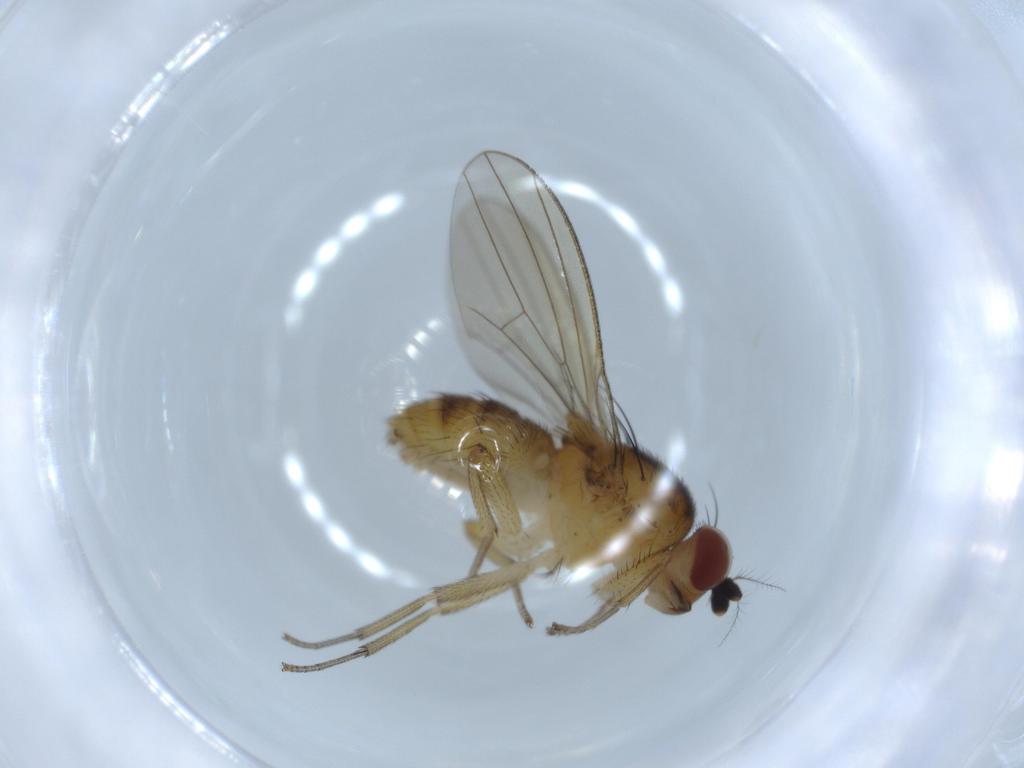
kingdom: Animalia
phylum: Arthropoda
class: Insecta
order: Diptera
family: Lauxaniidae
